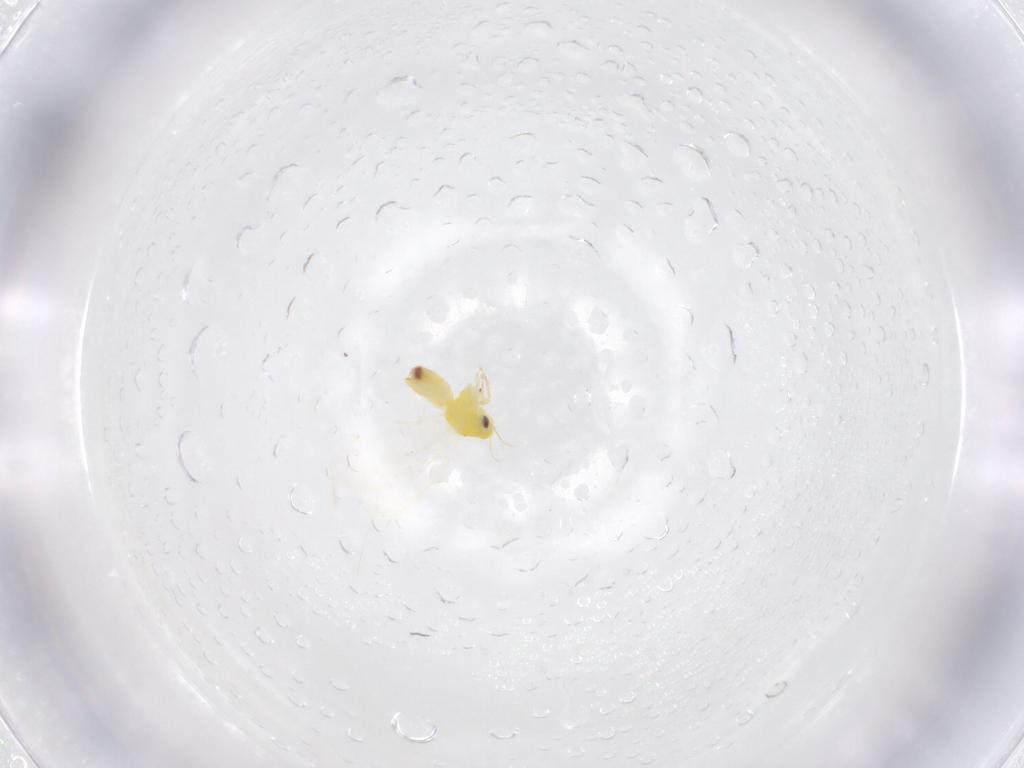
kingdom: Animalia
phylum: Arthropoda
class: Insecta
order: Hemiptera
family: Aleyrodidae
